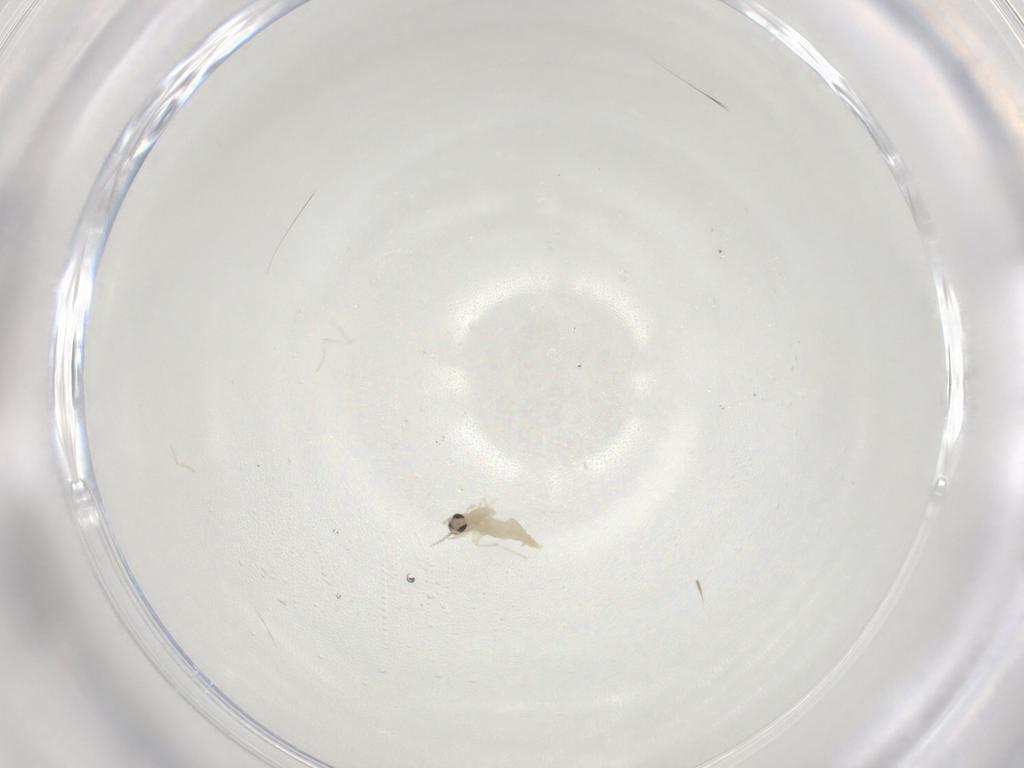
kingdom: Animalia
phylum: Arthropoda
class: Insecta
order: Diptera
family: Cecidomyiidae
